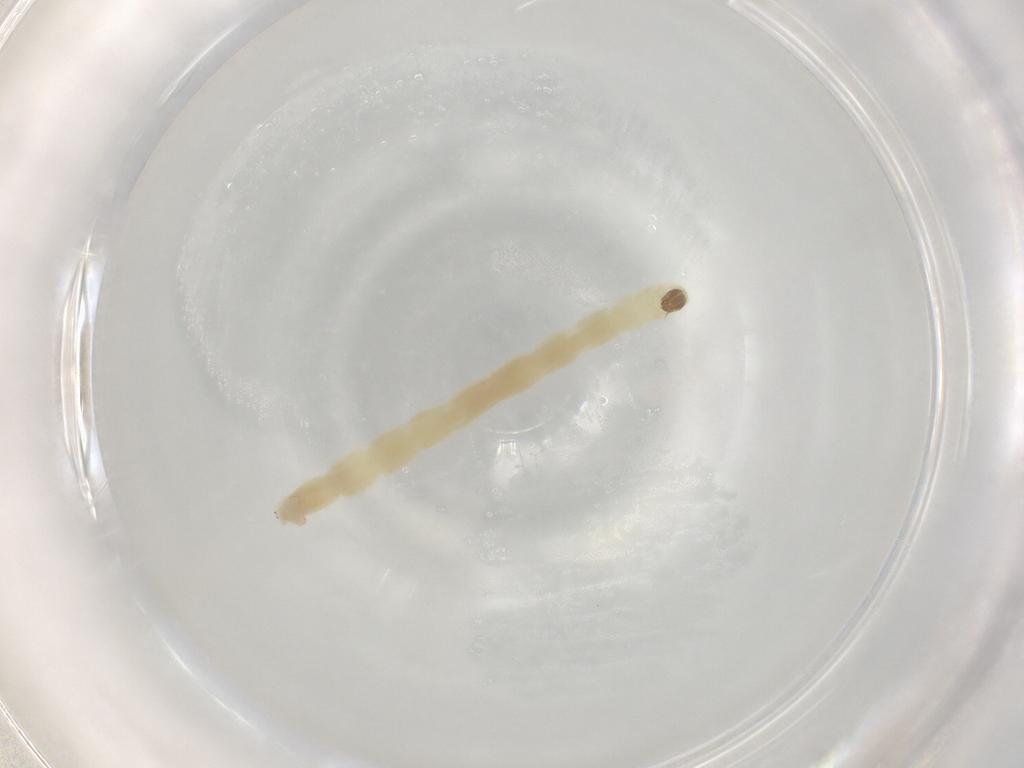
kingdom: Animalia
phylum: Arthropoda
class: Insecta
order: Diptera
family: Chironomidae
